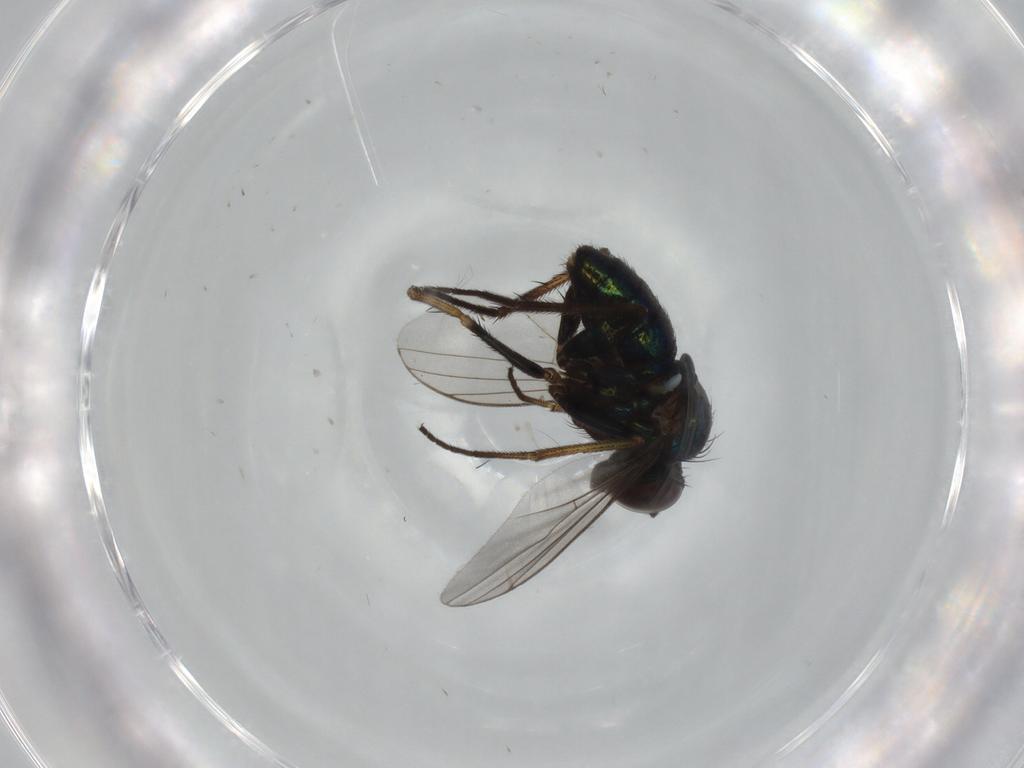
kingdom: Animalia
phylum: Arthropoda
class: Insecta
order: Diptera
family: Ceratopogonidae
